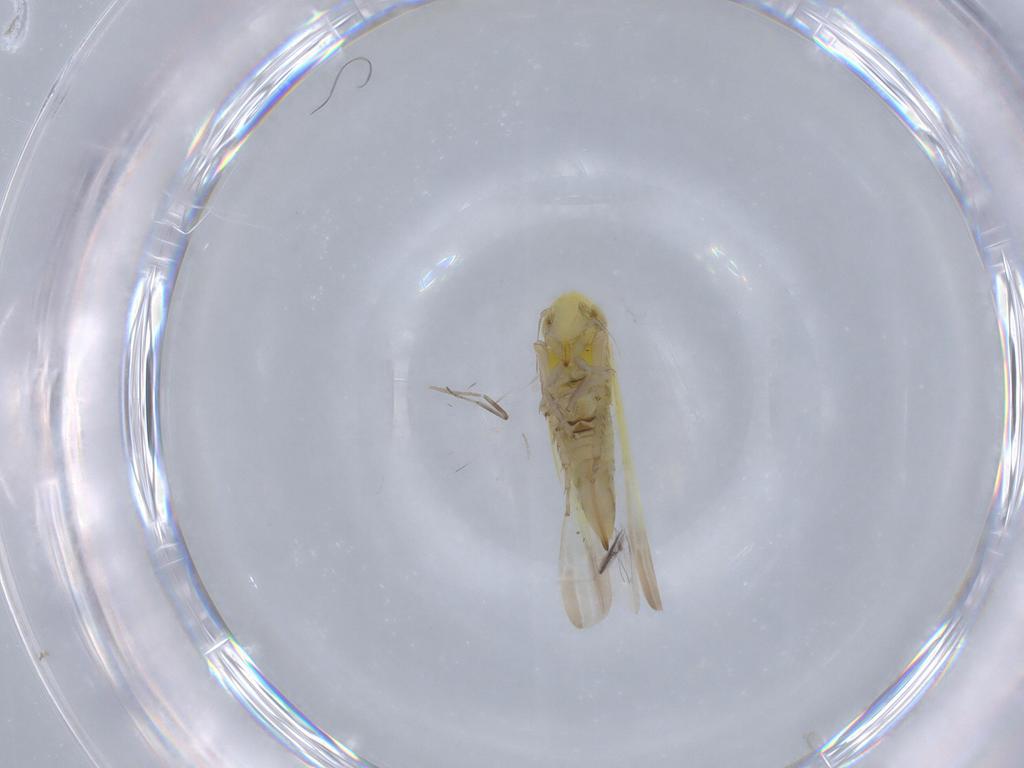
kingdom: Animalia
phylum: Arthropoda
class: Insecta
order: Hemiptera
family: Cicadellidae
